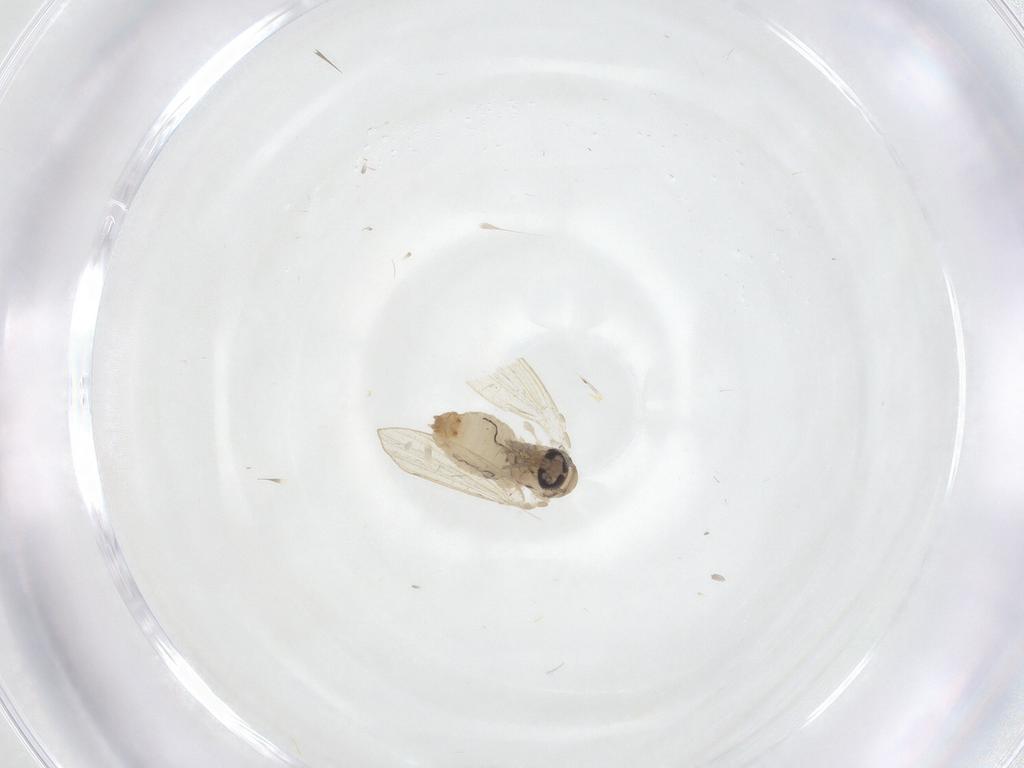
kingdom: Animalia
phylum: Arthropoda
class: Insecta
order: Diptera
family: Psychodidae
